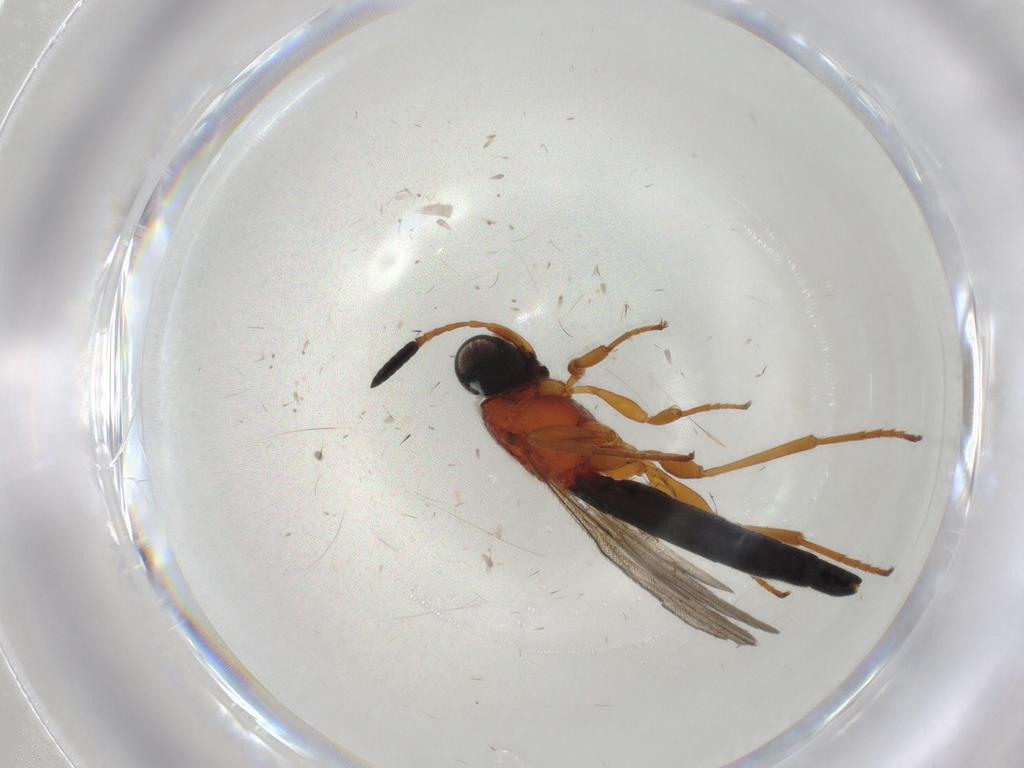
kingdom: Animalia
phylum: Arthropoda
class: Insecta
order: Hymenoptera
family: Scelionidae
